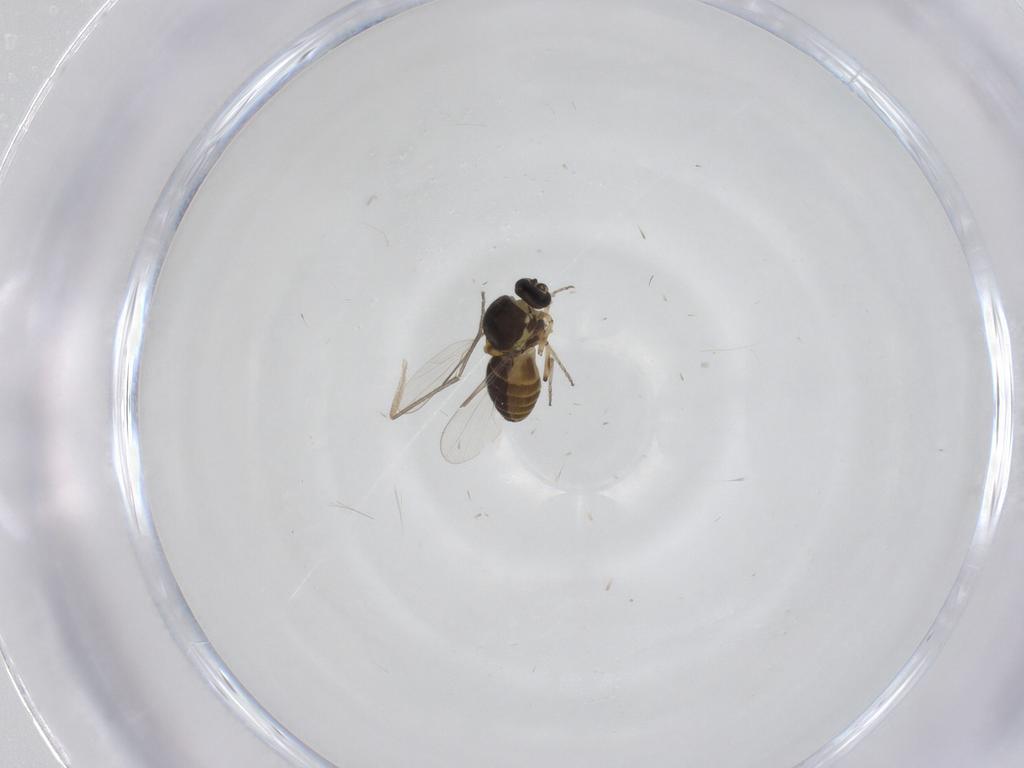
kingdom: Animalia
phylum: Arthropoda
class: Insecta
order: Diptera
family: Ceratopogonidae
